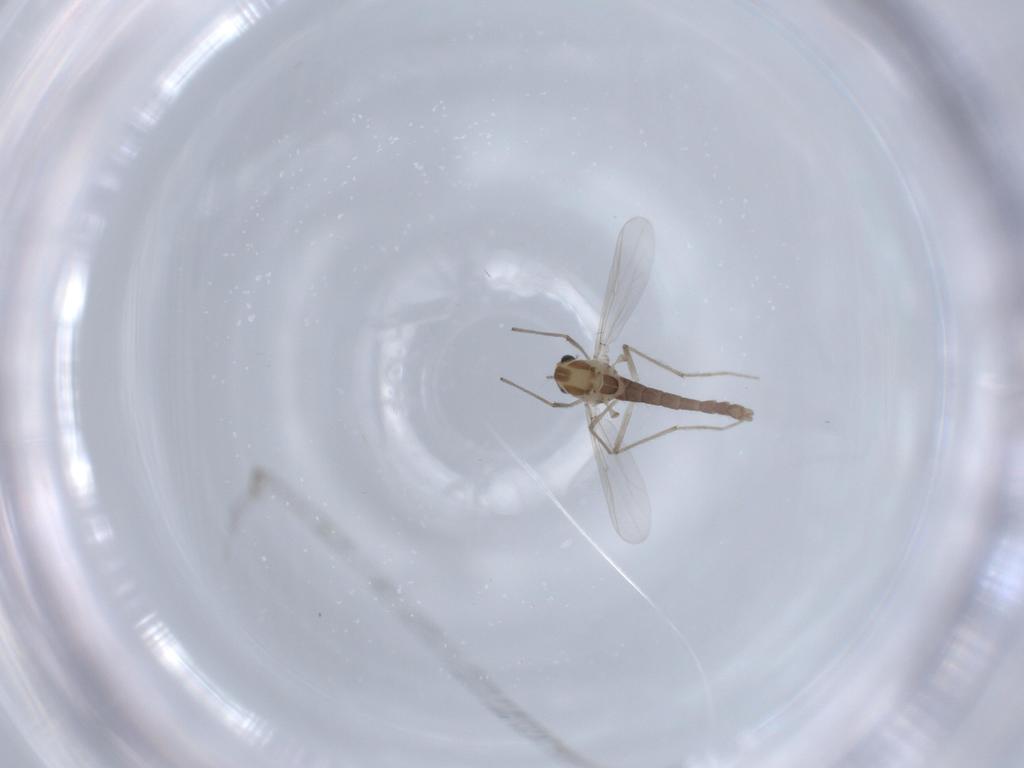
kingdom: Animalia
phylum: Arthropoda
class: Insecta
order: Diptera
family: Chironomidae
